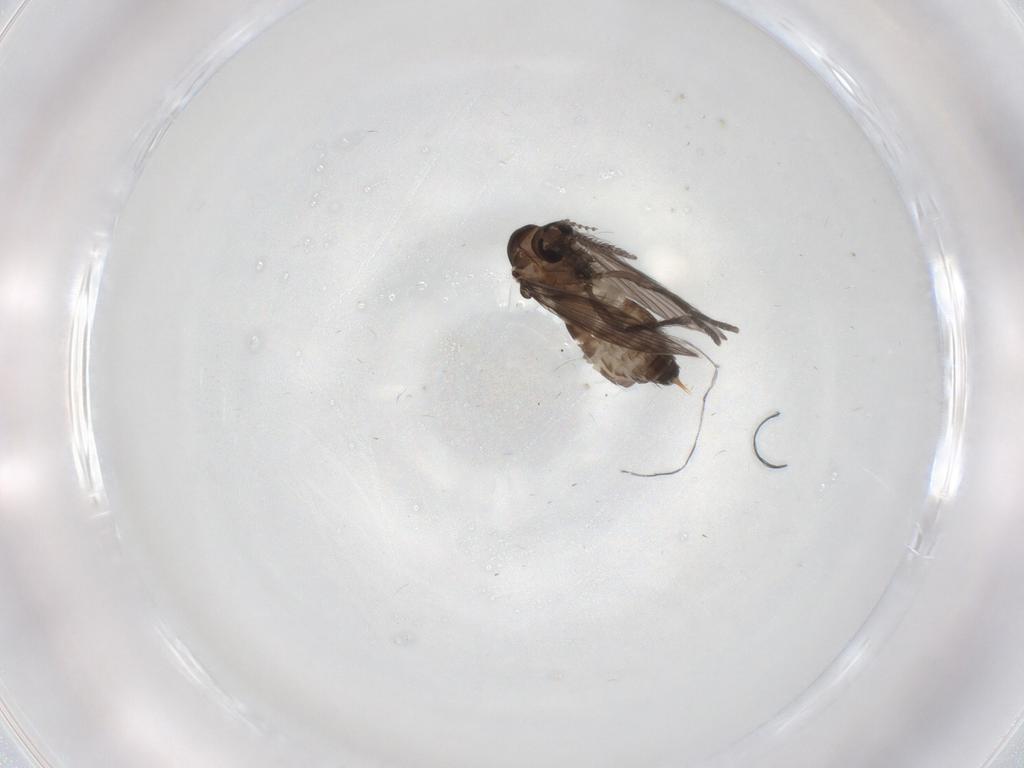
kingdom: Animalia
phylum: Arthropoda
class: Insecta
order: Diptera
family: Psychodidae
